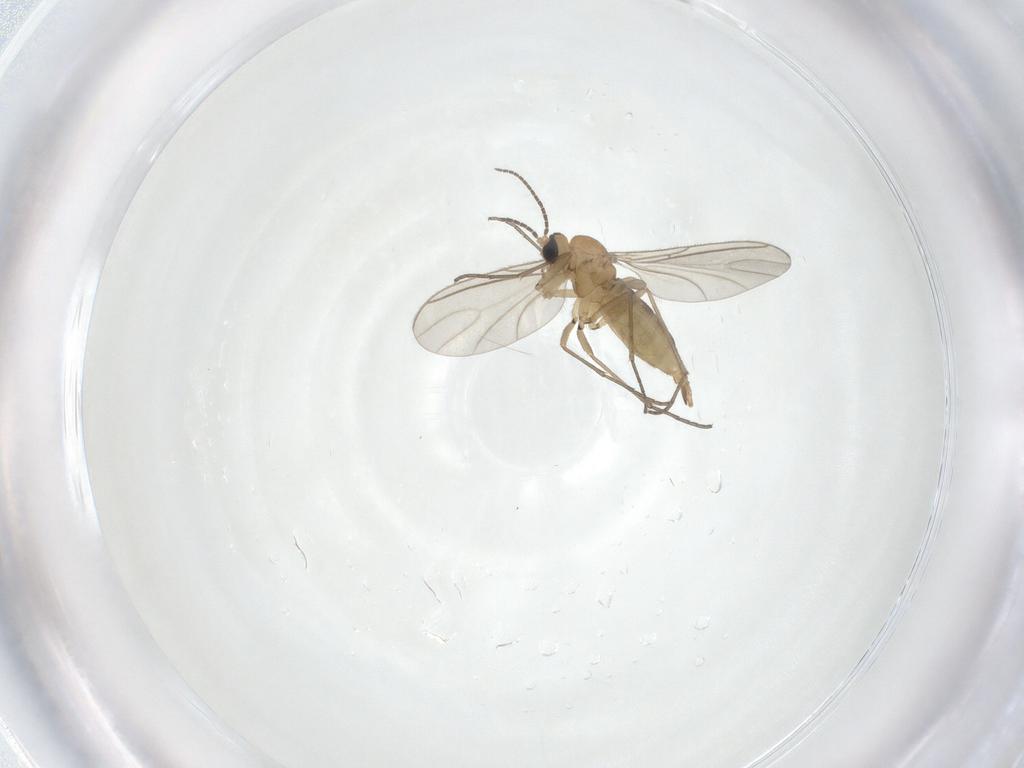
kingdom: Animalia
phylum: Arthropoda
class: Insecta
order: Diptera
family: Sciaridae
